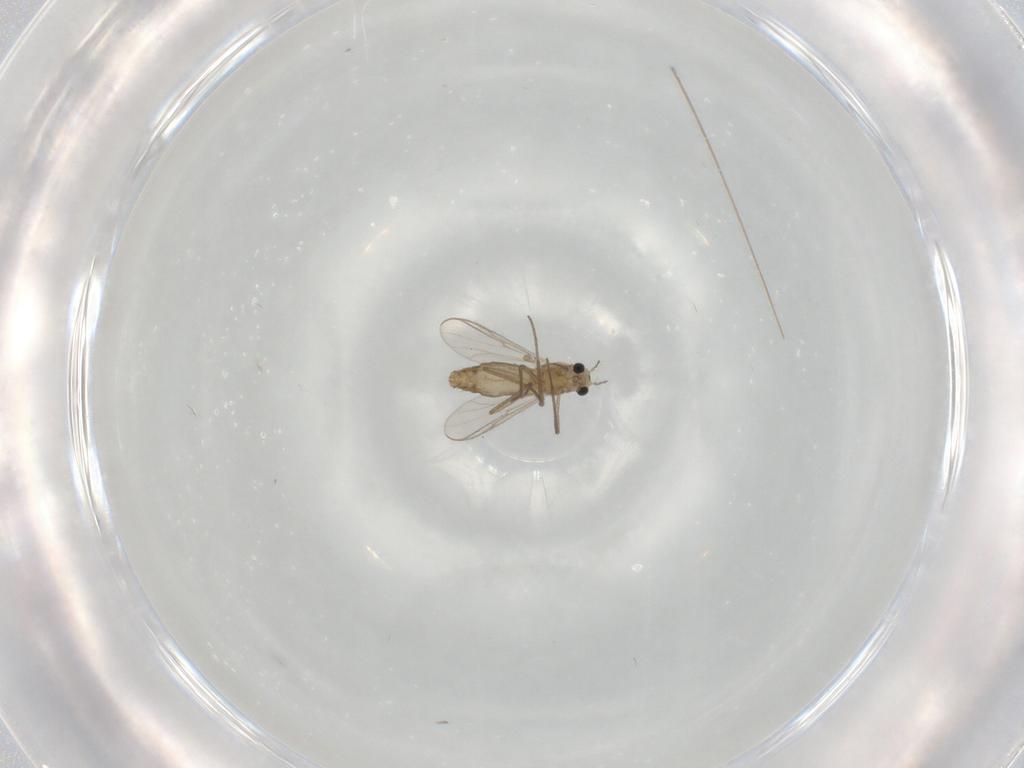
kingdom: Animalia
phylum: Arthropoda
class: Insecta
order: Diptera
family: Chironomidae
